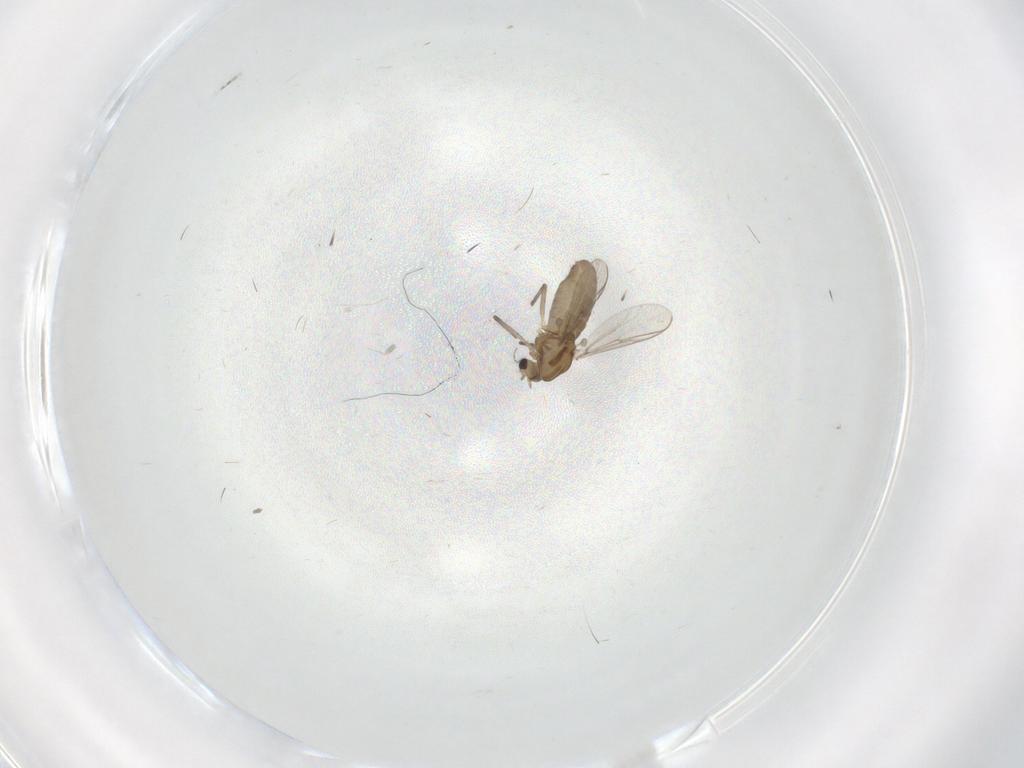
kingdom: Animalia
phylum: Arthropoda
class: Insecta
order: Diptera
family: Chironomidae
